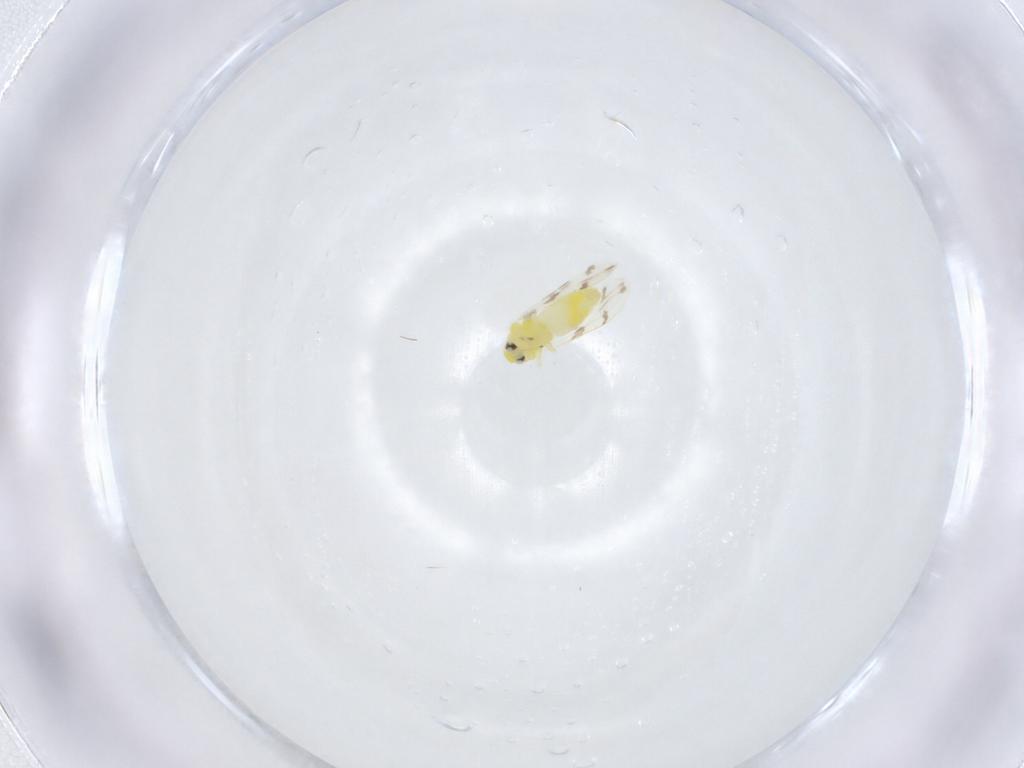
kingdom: Animalia
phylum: Arthropoda
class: Insecta
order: Hemiptera
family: Aleyrodidae
